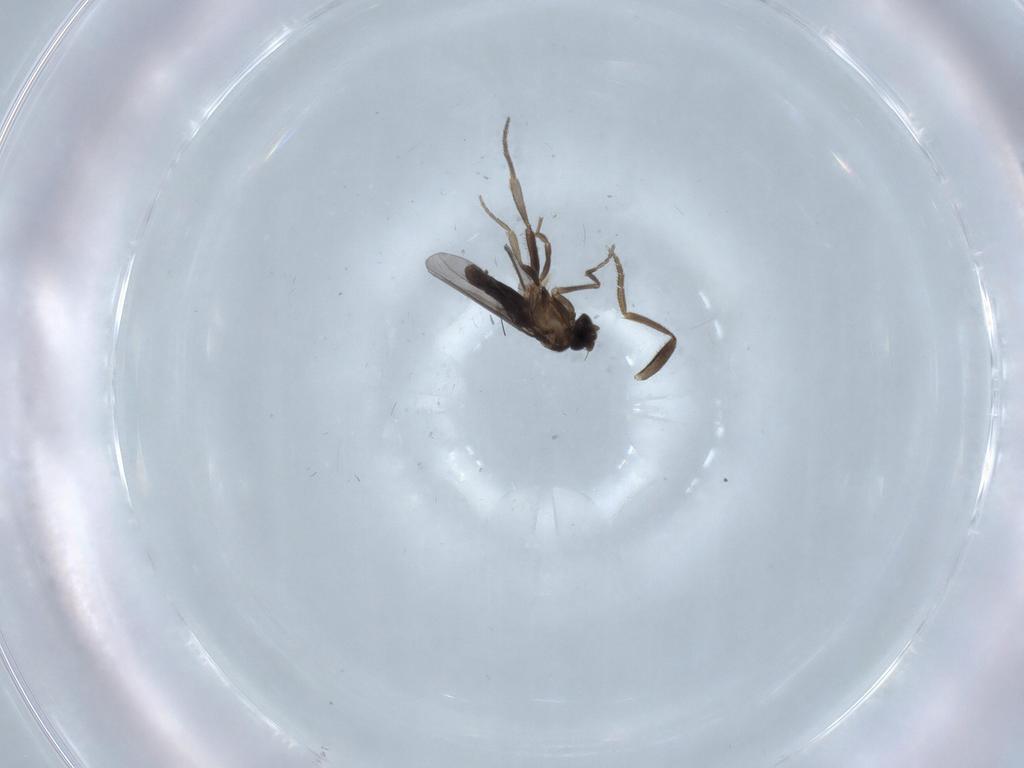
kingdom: Animalia
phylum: Arthropoda
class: Insecta
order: Diptera
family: Phoridae
